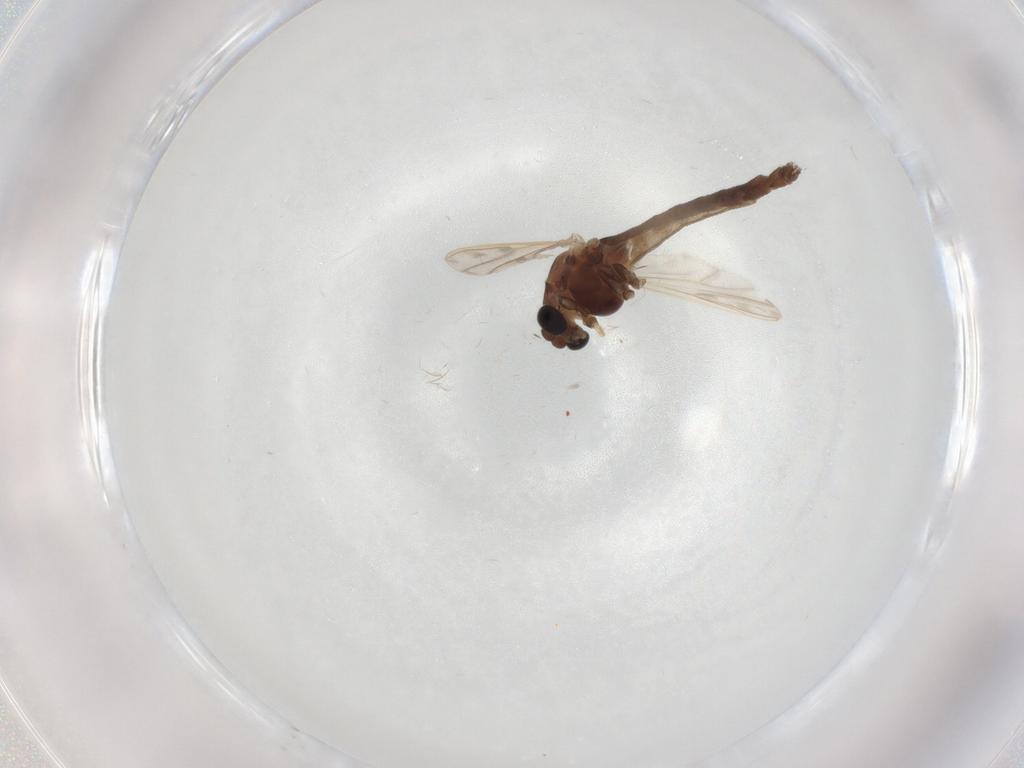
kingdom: Animalia
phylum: Arthropoda
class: Insecta
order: Diptera
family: Chironomidae
